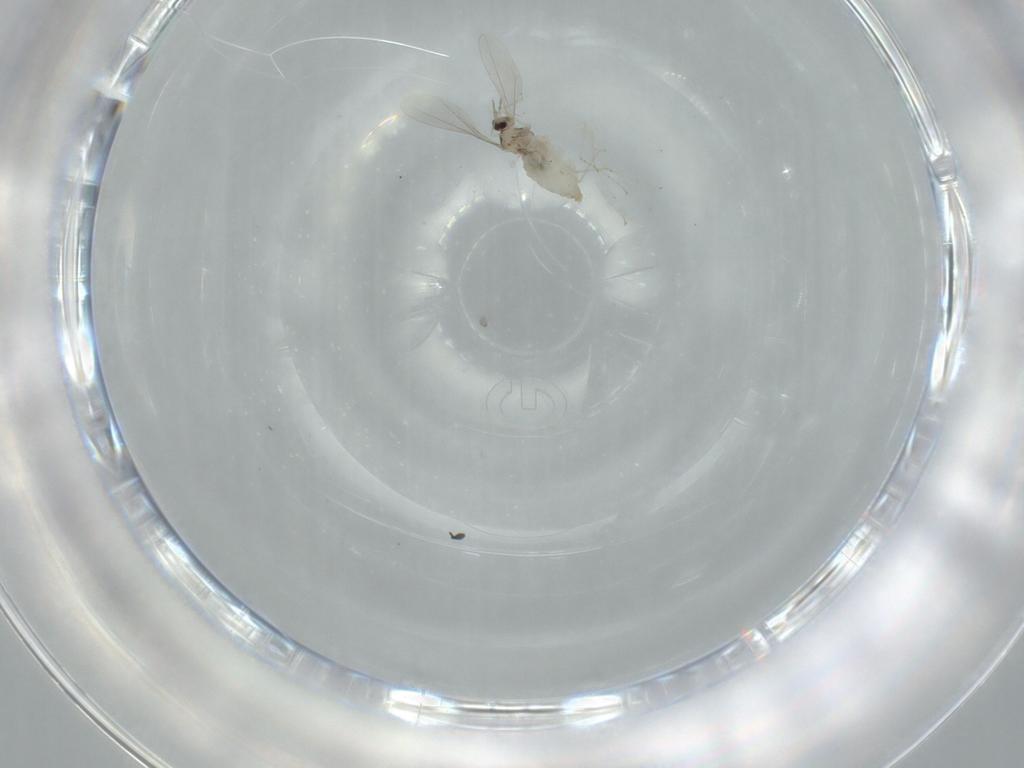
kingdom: Animalia
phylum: Arthropoda
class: Insecta
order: Diptera
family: Cecidomyiidae
